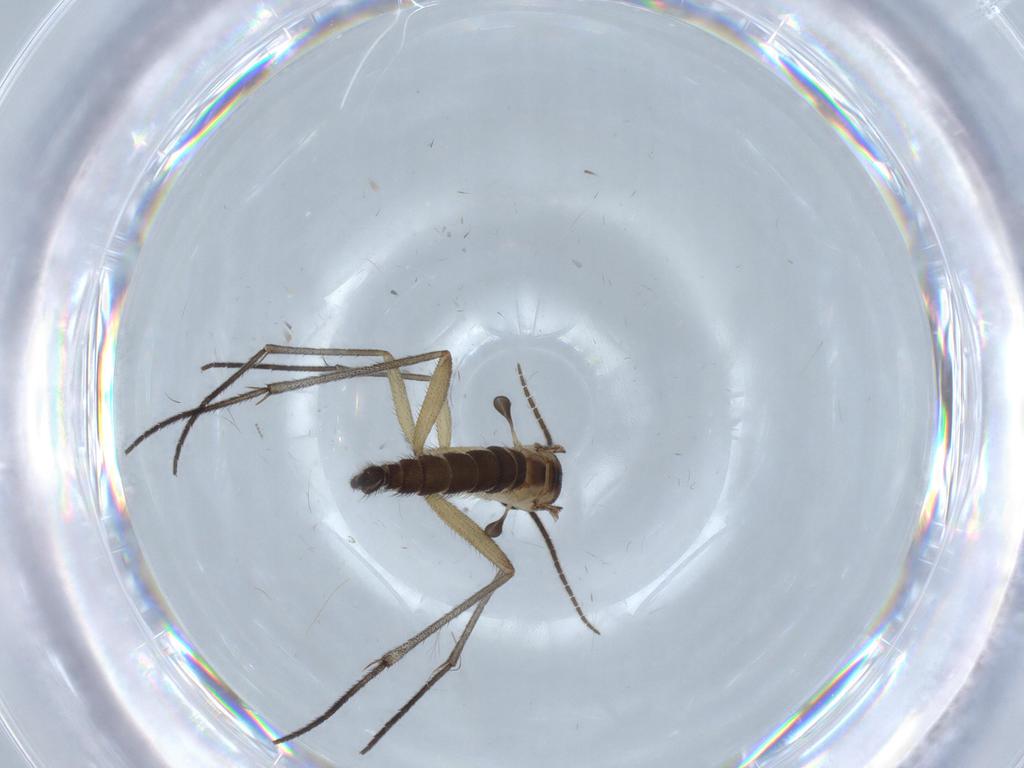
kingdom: Animalia
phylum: Arthropoda
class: Insecta
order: Diptera
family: Sciaridae
